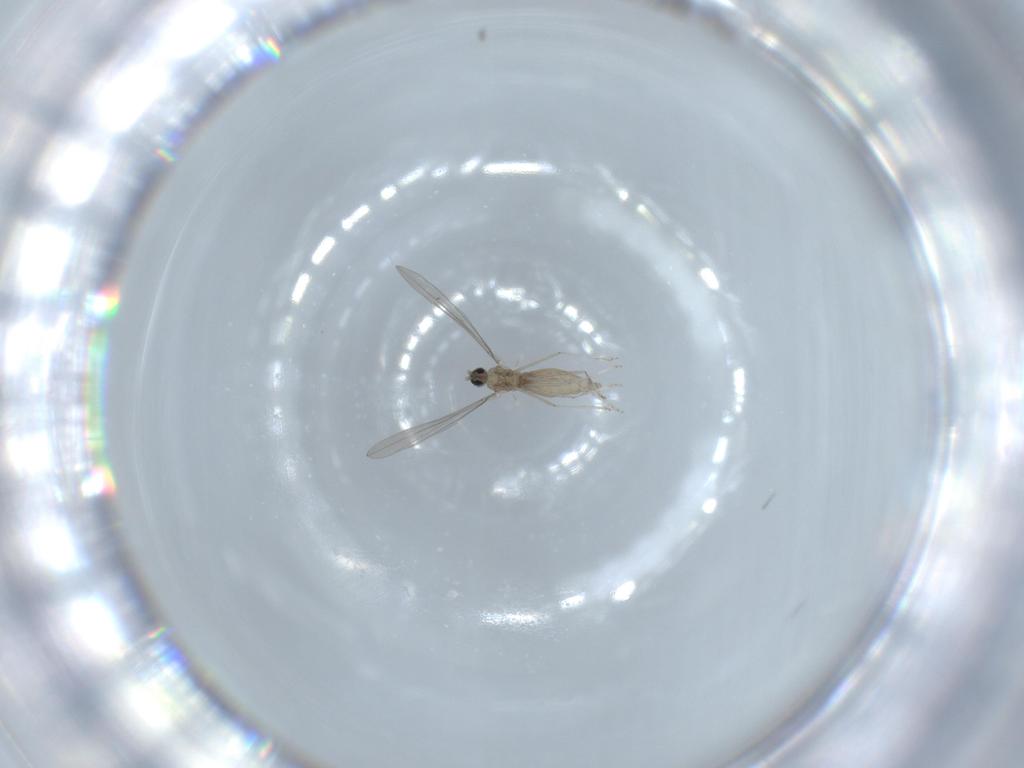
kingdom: Animalia
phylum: Arthropoda
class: Insecta
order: Diptera
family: Cecidomyiidae
